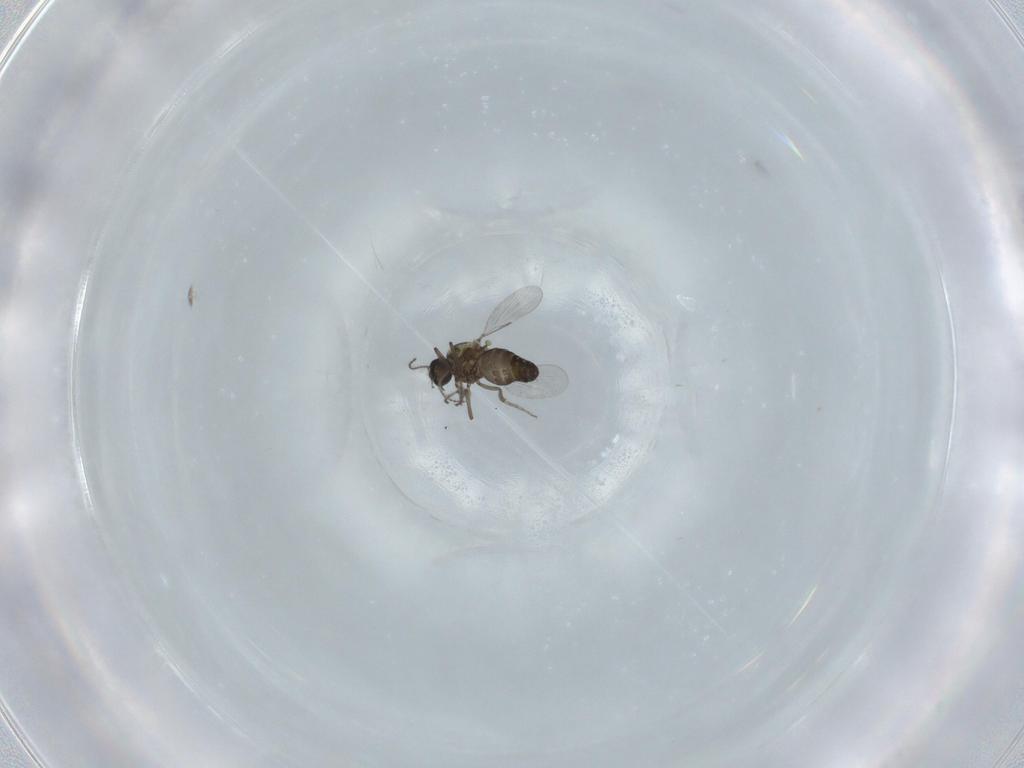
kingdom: Animalia
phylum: Arthropoda
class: Insecta
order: Diptera
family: Ceratopogonidae
